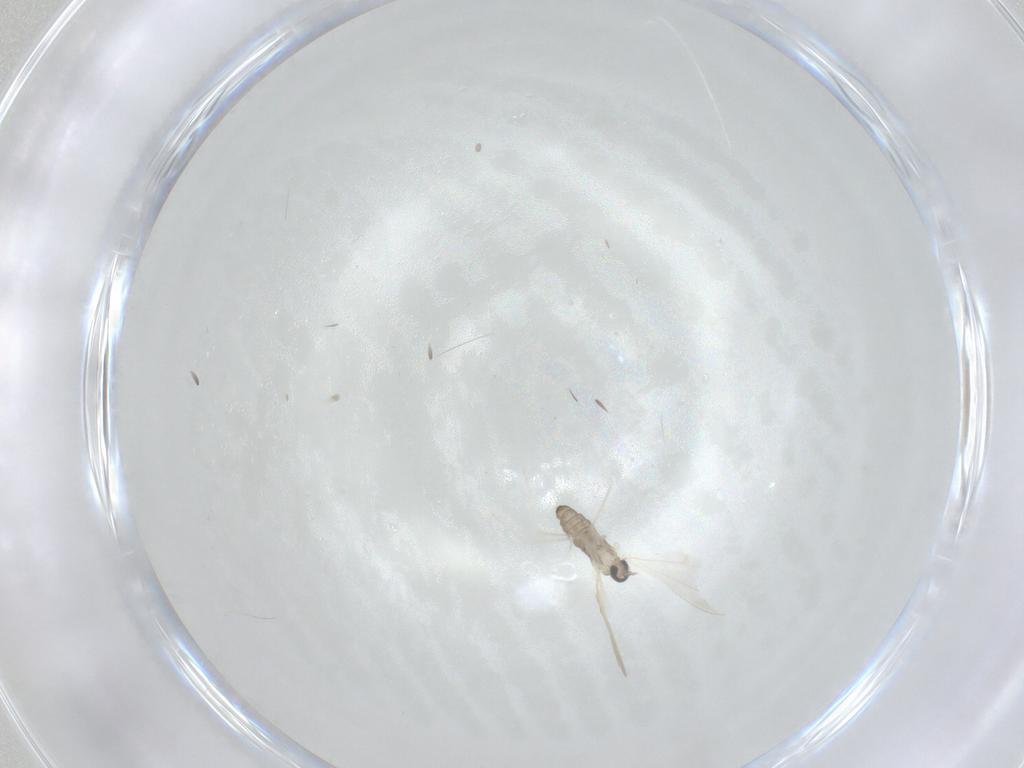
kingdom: Animalia
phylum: Arthropoda
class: Insecta
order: Diptera
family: Cecidomyiidae
